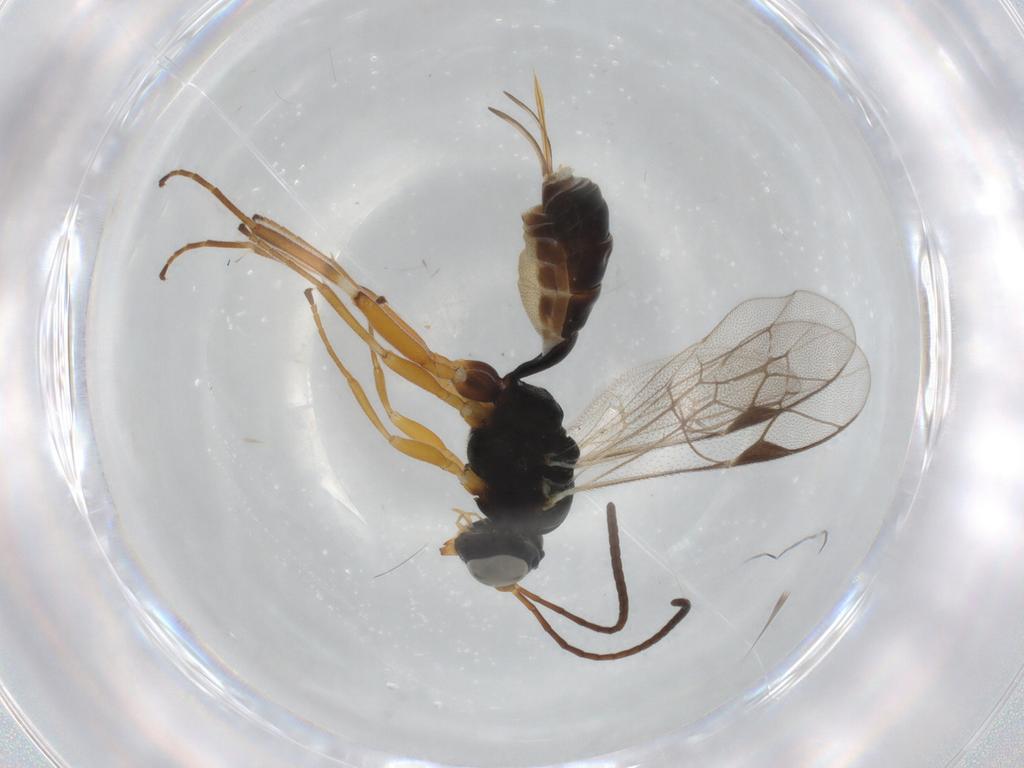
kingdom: Animalia
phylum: Arthropoda
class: Insecta
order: Hymenoptera
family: Ichneumonidae
